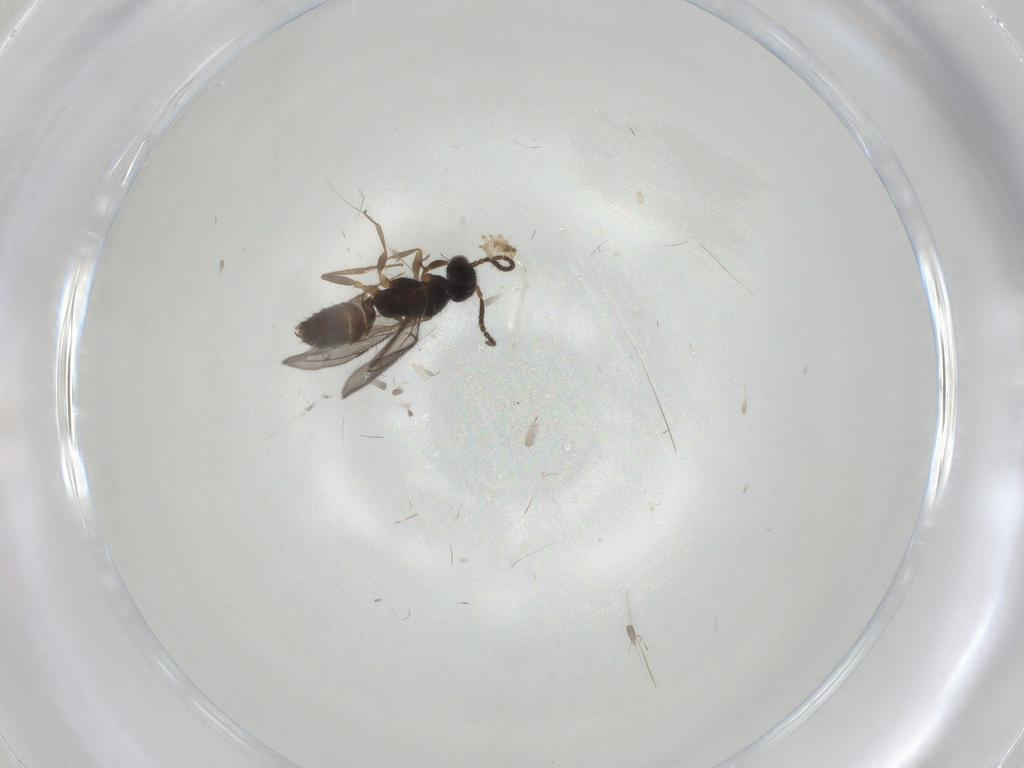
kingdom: Animalia
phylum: Arthropoda
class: Insecta
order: Hymenoptera
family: Bethylidae
